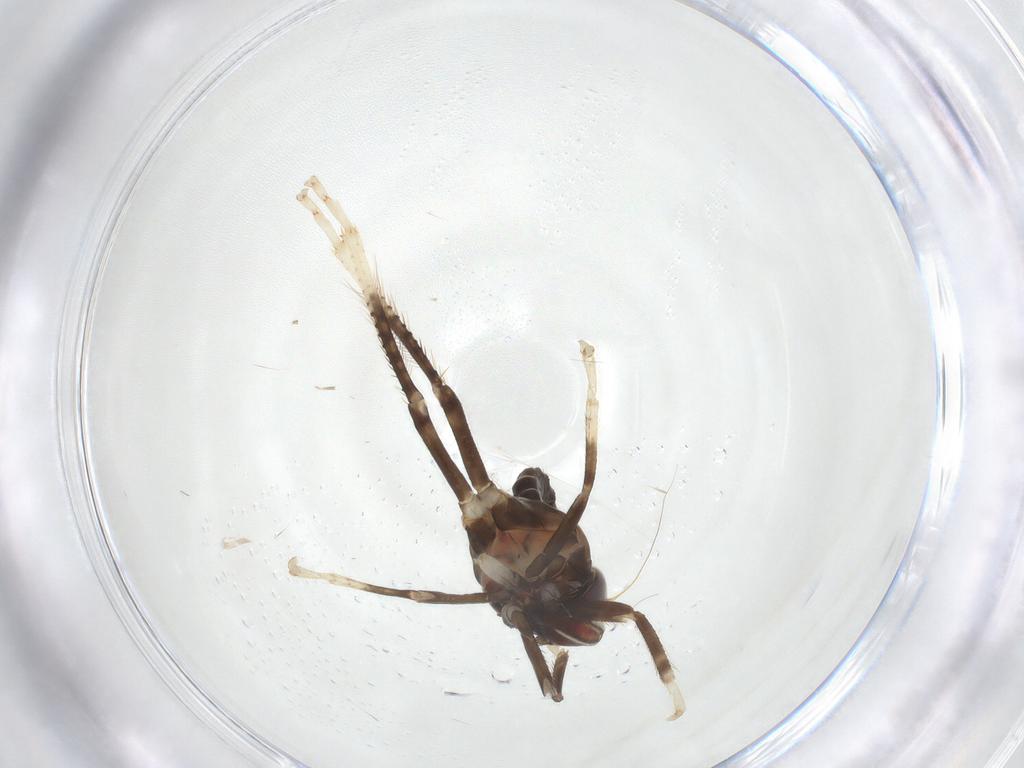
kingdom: Animalia
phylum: Arthropoda
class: Insecta
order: Hemiptera
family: Cicadellidae
